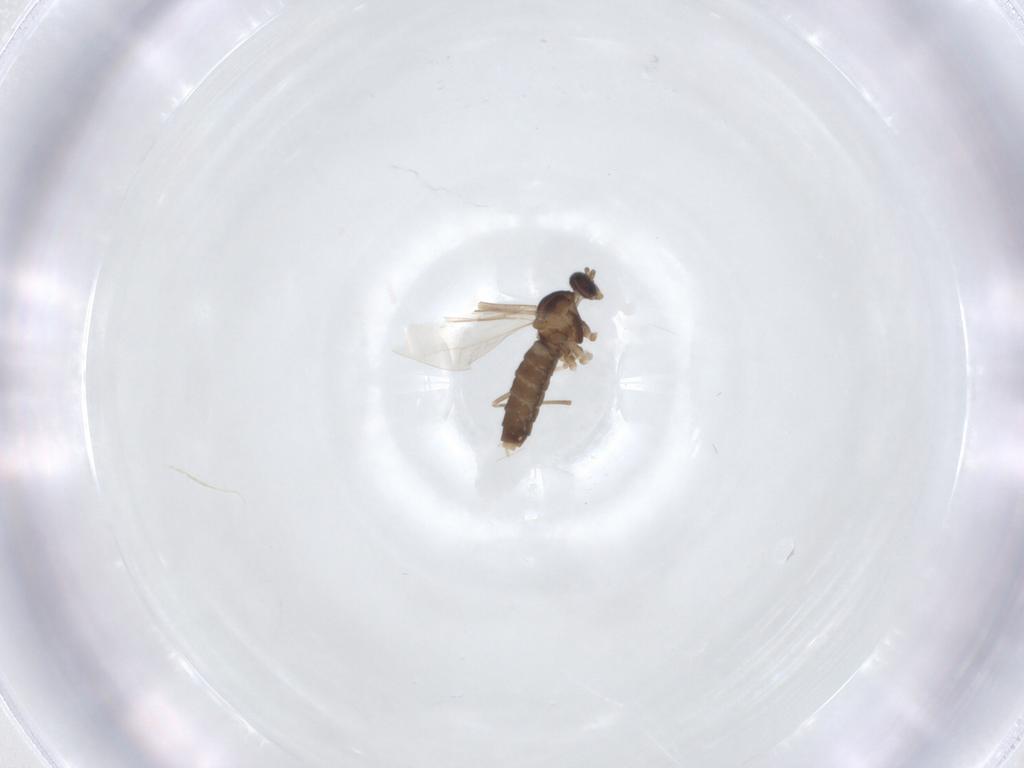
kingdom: Animalia
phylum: Arthropoda
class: Insecta
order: Diptera
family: Cecidomyiidae
